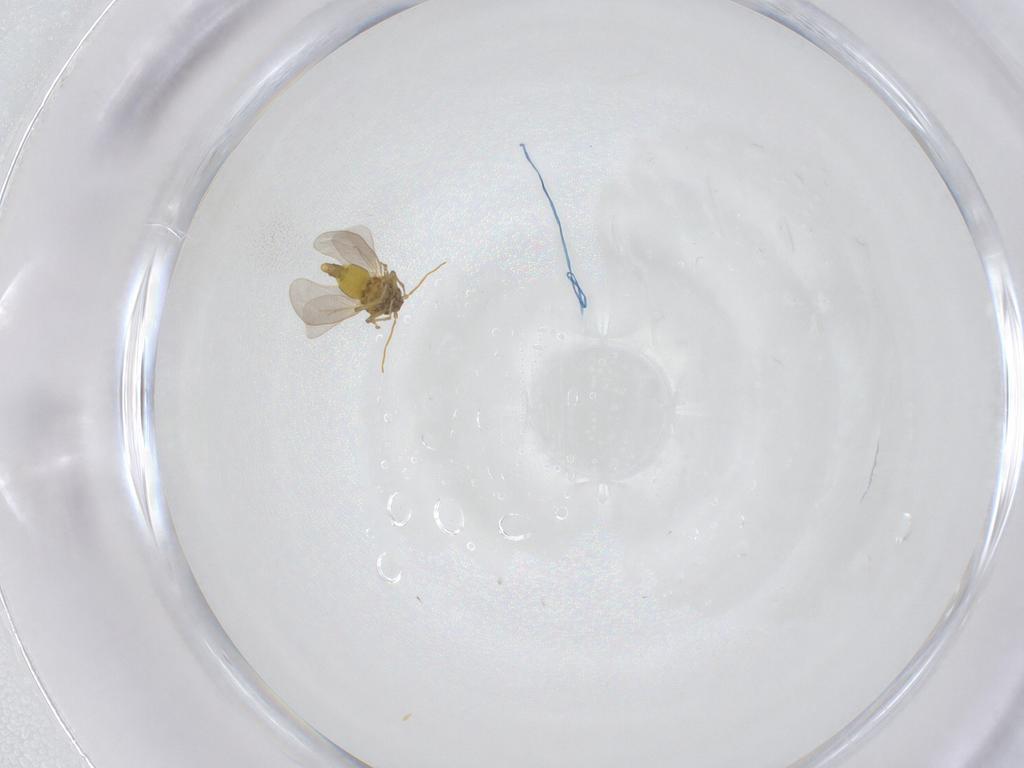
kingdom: Animalia
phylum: Arthropoda
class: Insecta
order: Hemiptera
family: Aleyrodidae
